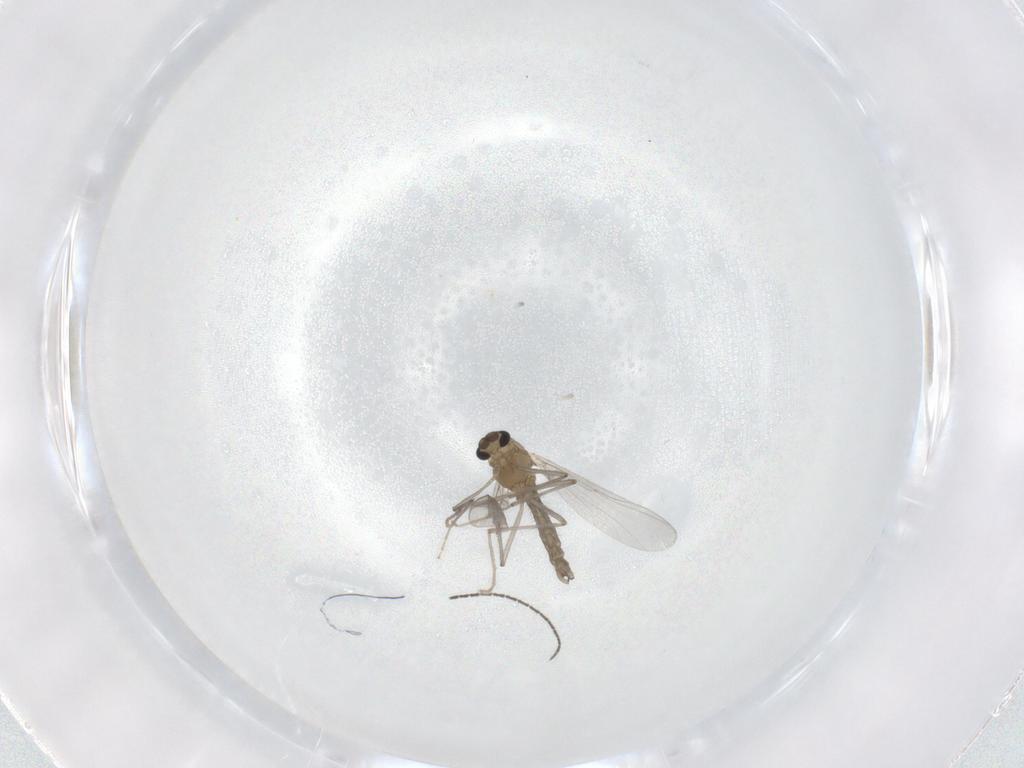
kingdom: Animalia
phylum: Arthropoda
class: Insecta
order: Diptera
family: Chironomidae
